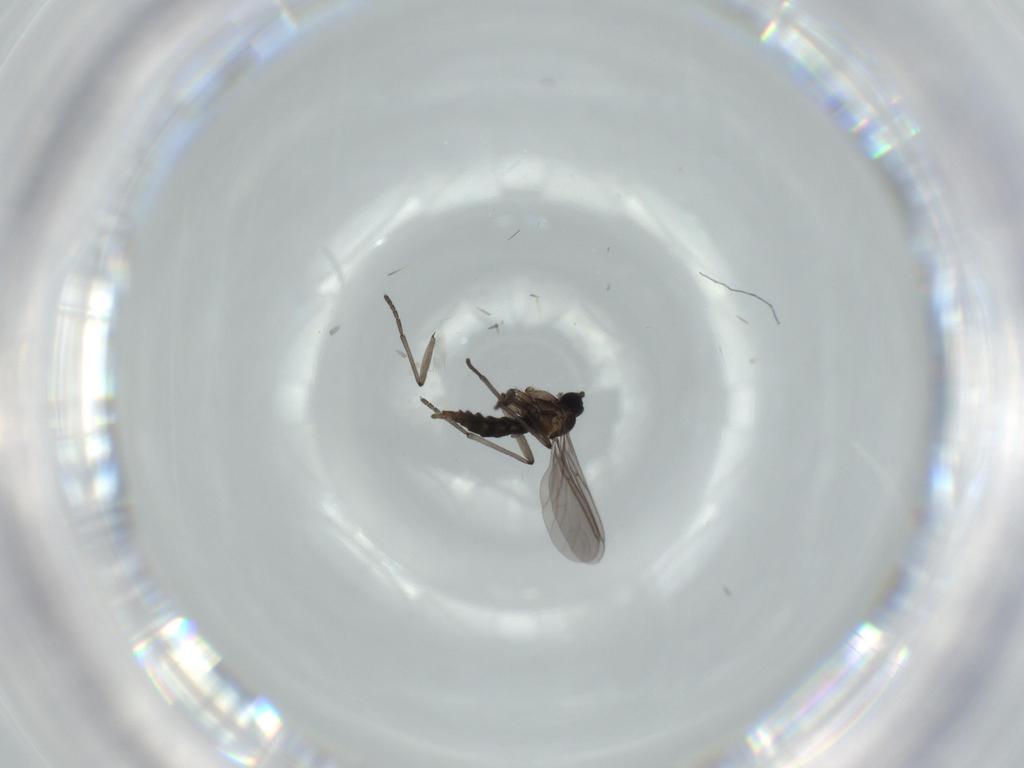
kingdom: Animalia
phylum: Arthropoda
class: Insecta
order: Diptera
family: Sciaridae
